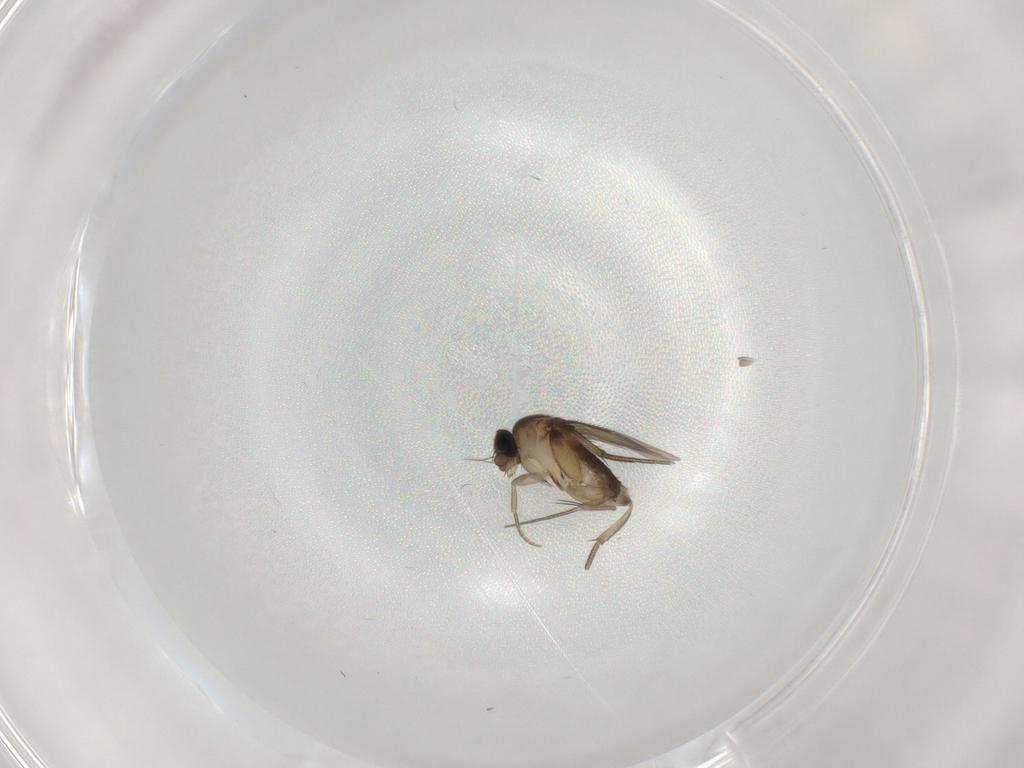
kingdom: Animalia
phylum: Arthropoda
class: Insecta
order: Diptera
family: Phoridae
